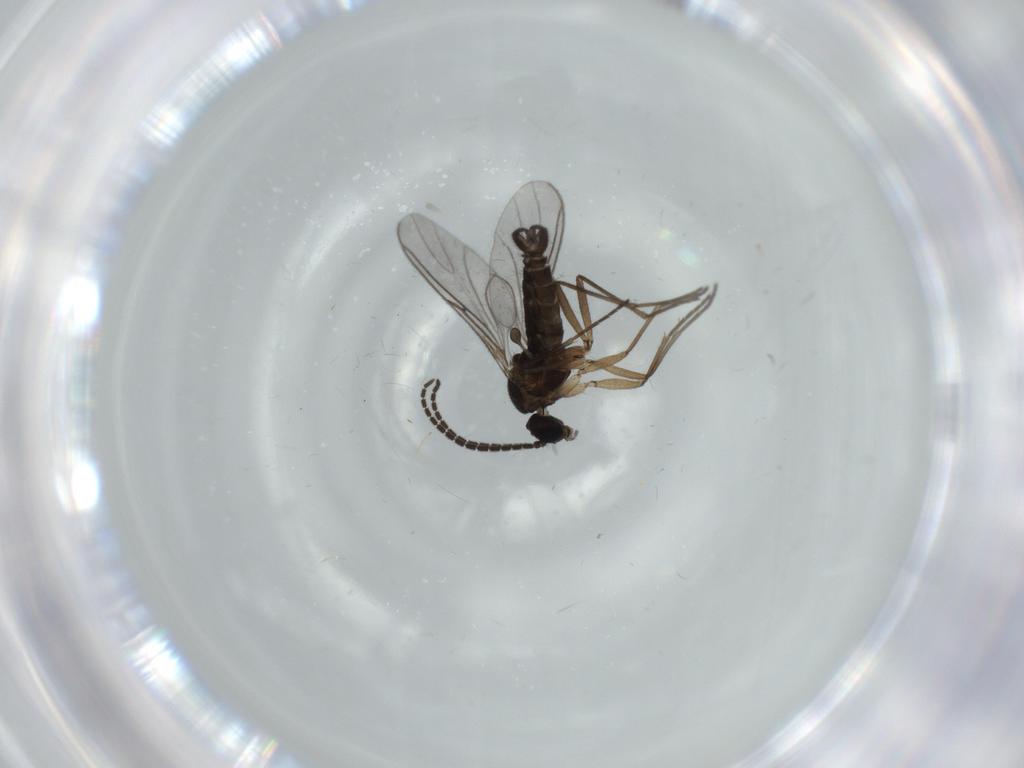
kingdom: Animalia
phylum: Arthropoda
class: Insecta
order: Diptera
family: Sciaridae
